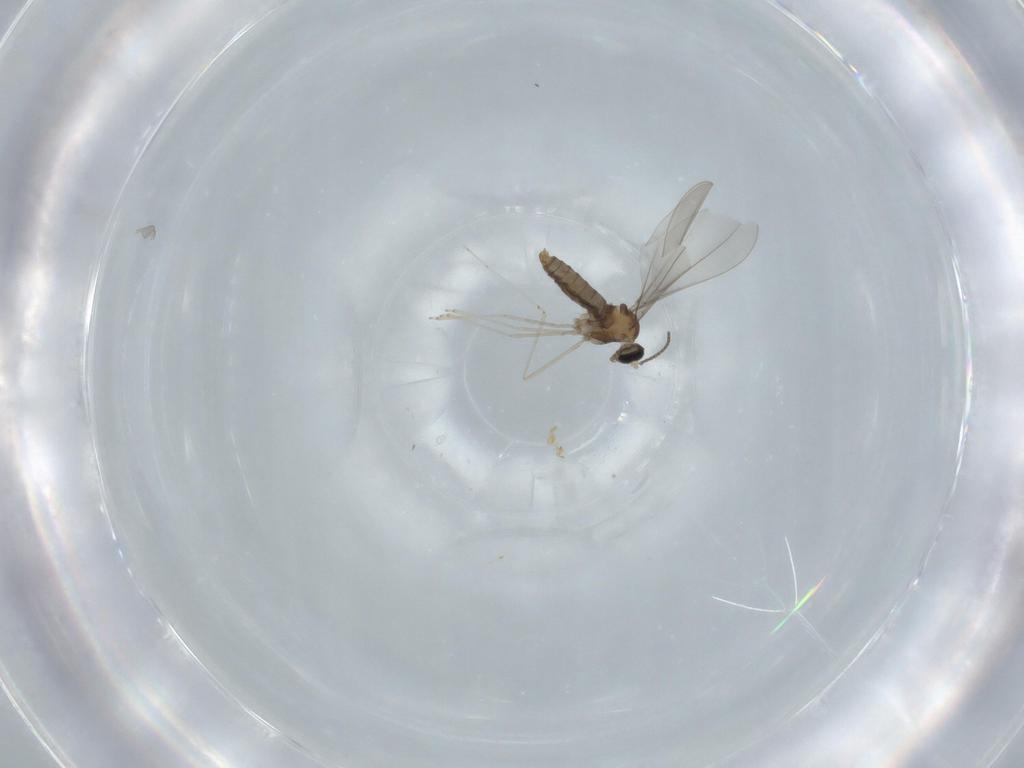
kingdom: Animalia
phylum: Arthropoda
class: Insecta
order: Diptera
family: Cecidomyiidae
